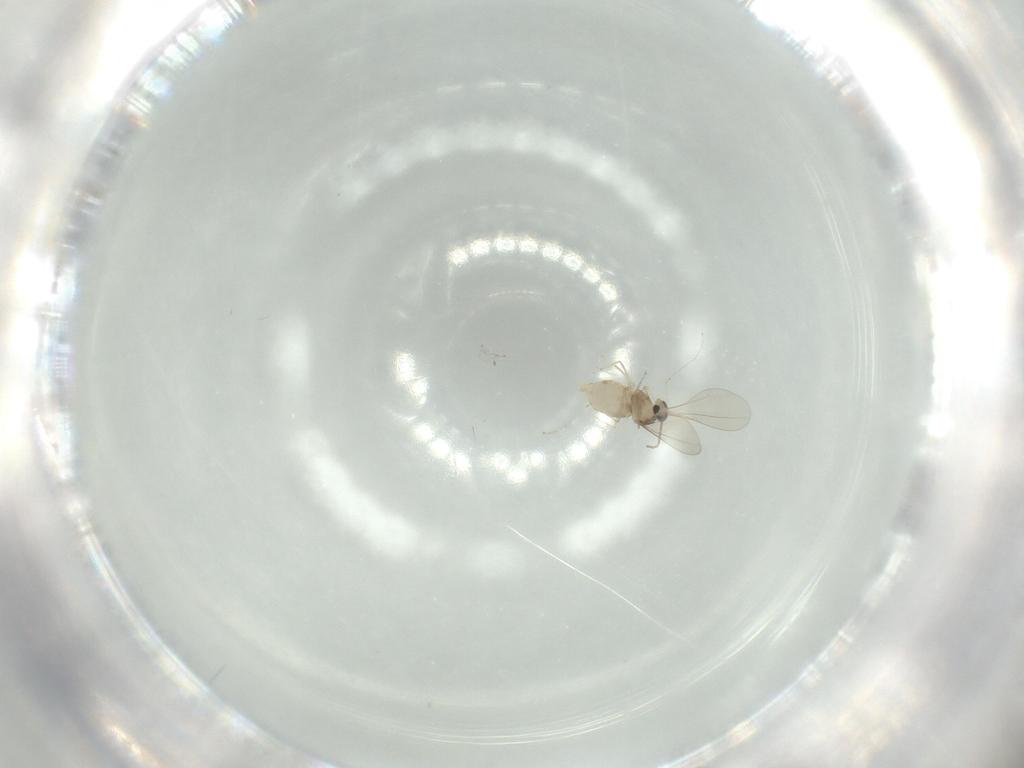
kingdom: Animalia
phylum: Arthropoda
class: Insecta
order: Diptera
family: Cecidomyiidae
